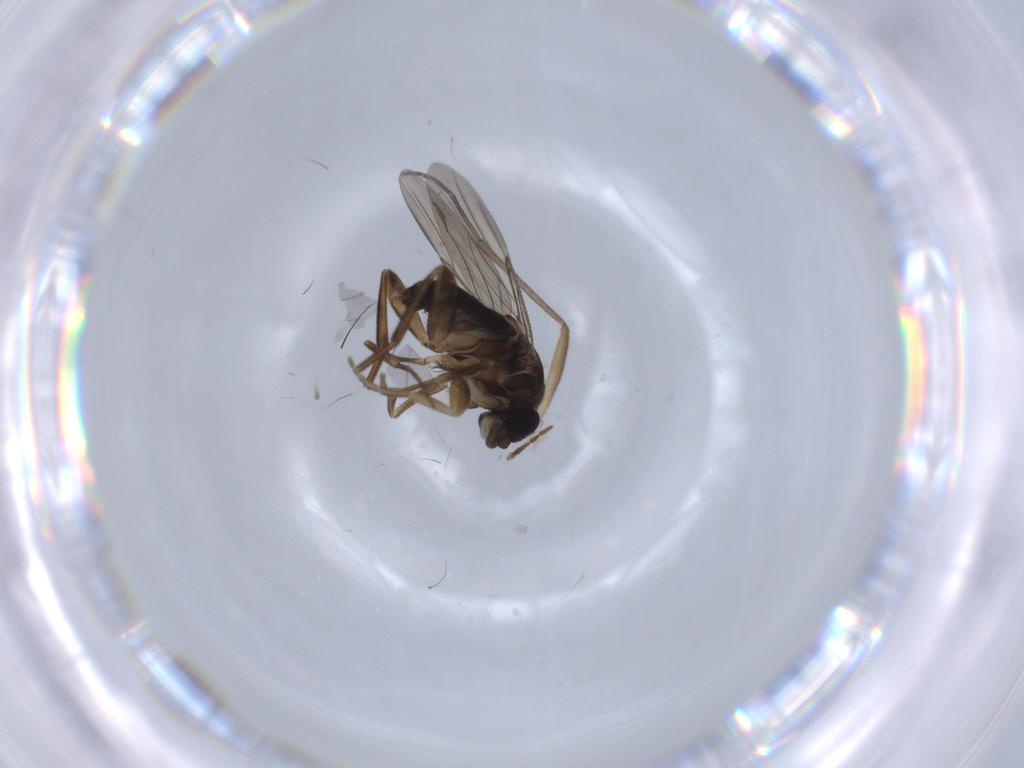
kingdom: Animalia
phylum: Arthropoda
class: Insecta
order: Diptera
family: Phoridae
